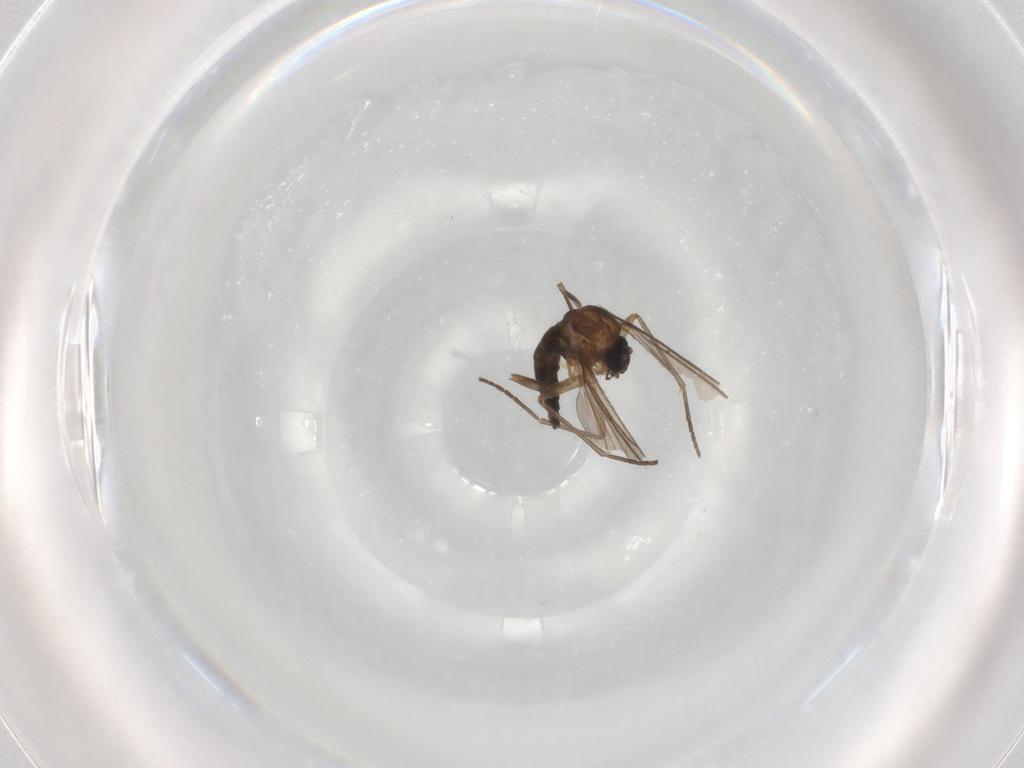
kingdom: Animalia
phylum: Arthropoda
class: Insecta
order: Diptera
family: Sciaridae
